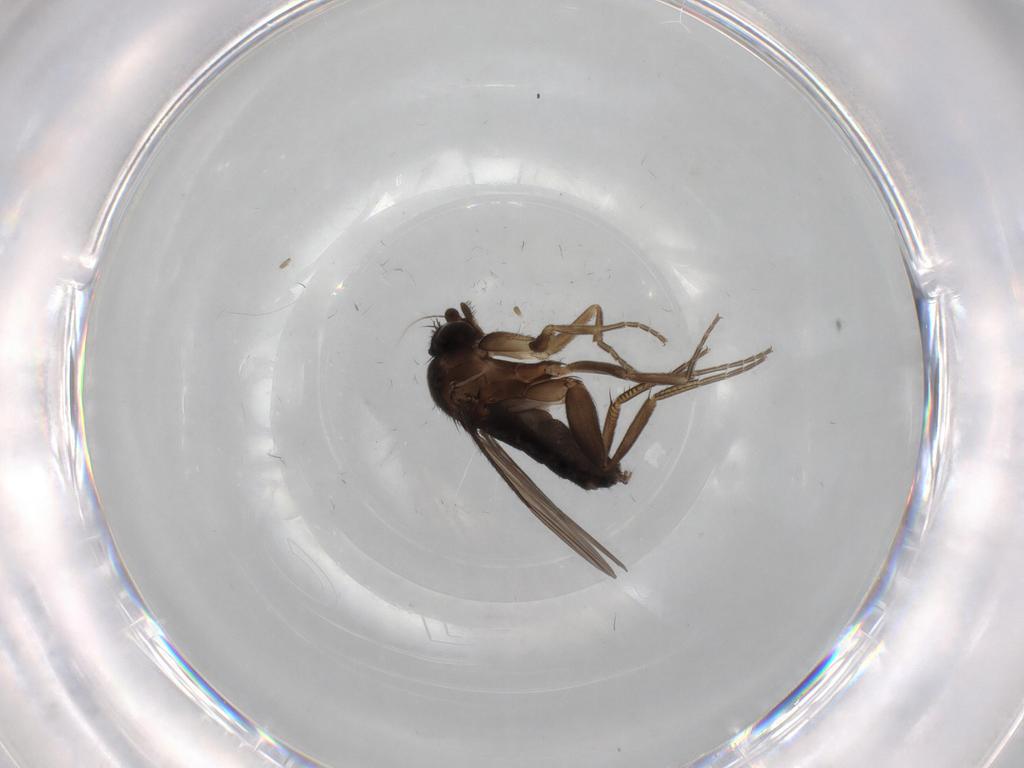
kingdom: Animalia
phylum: Arthropoda
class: Insecta
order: Diptera
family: Phoridae
